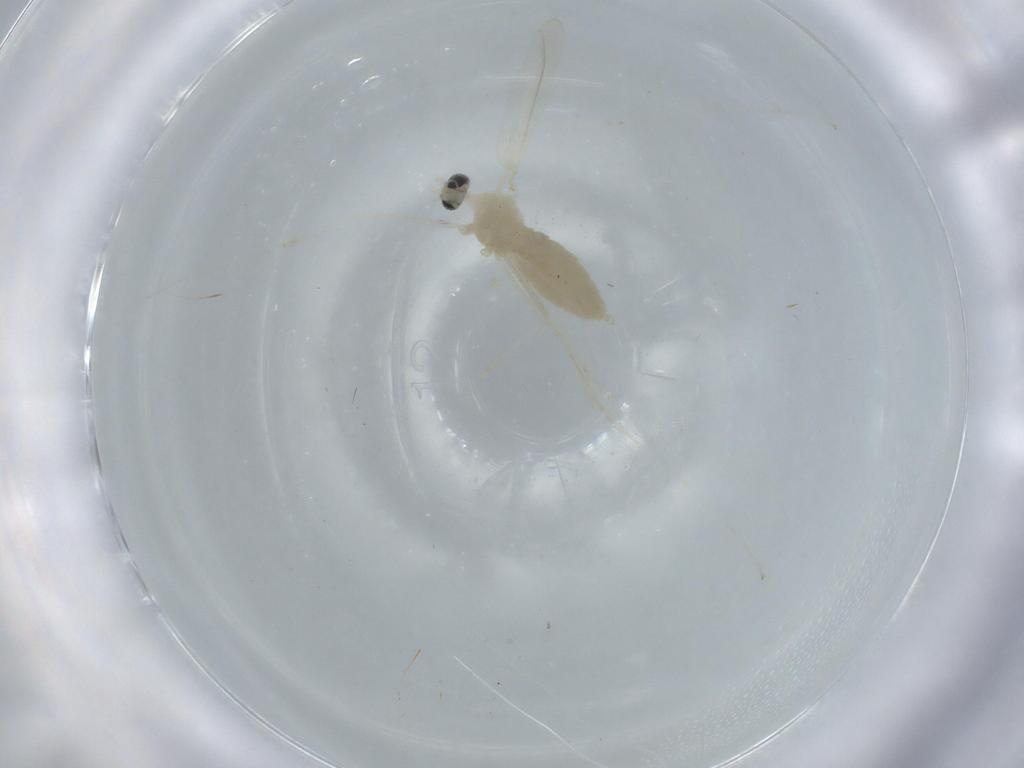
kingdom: Animalia
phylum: Arthropoda
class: Insecta
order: Diptera
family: Cecidomyiidae
